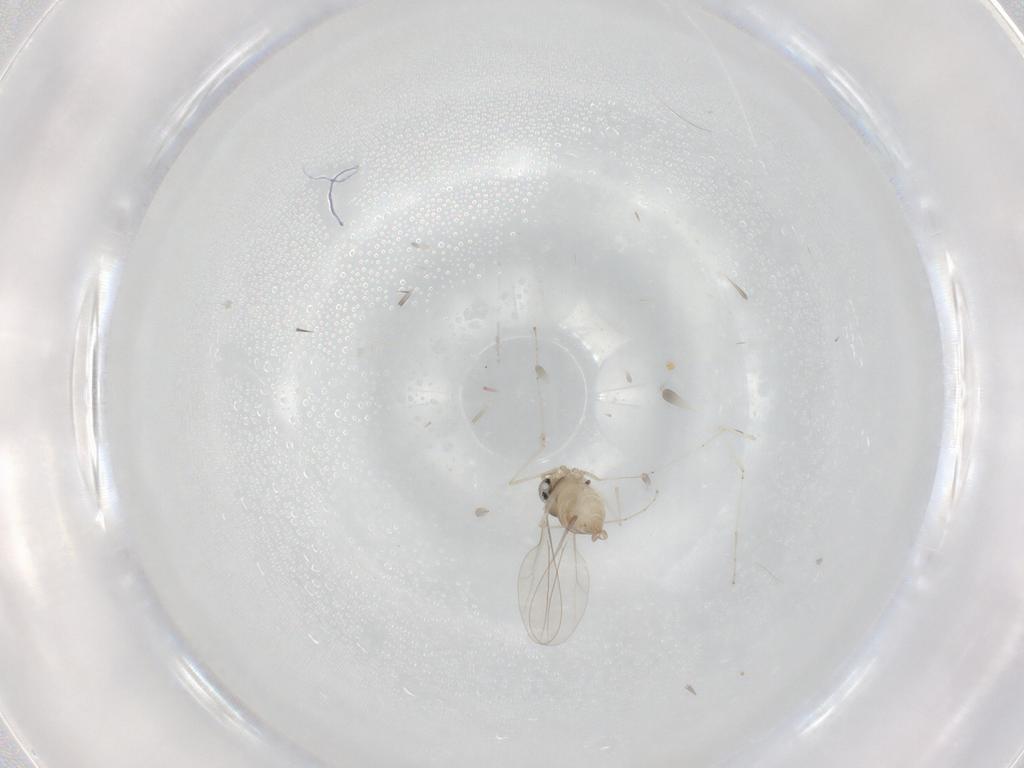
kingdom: Animalia
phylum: Arthropoda
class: Insecta
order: Diptera
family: Cecidomyiidae
